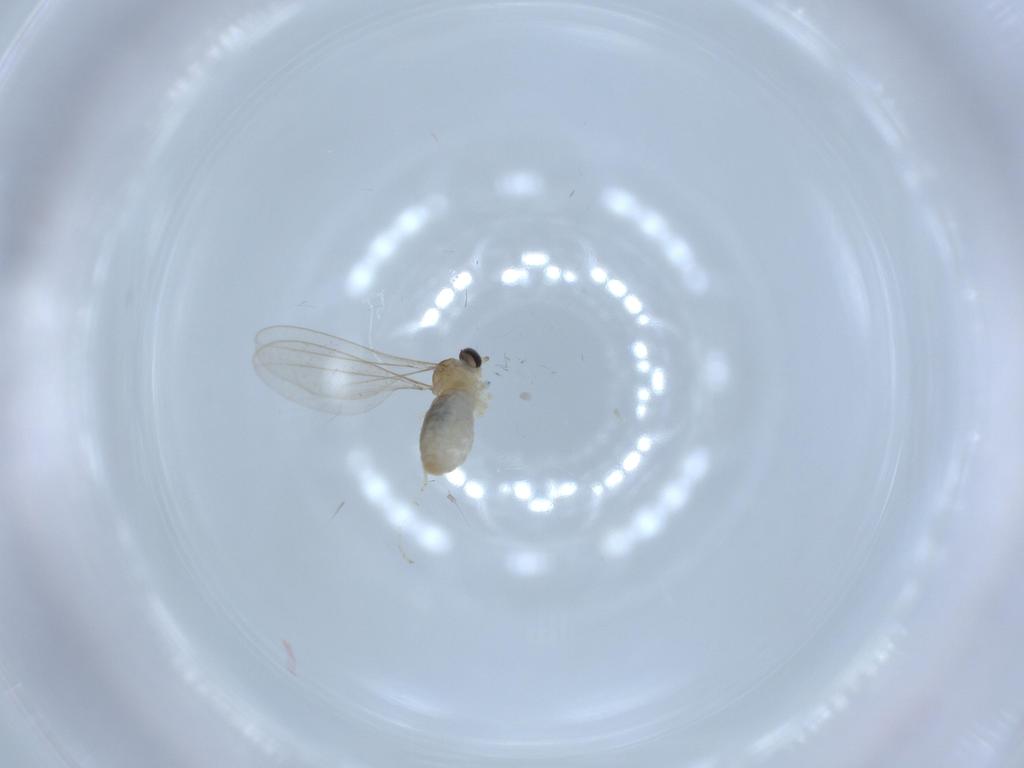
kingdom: Animalia
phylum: Arthropoda
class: Insecta
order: Diptera
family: Cecidomyiidae
